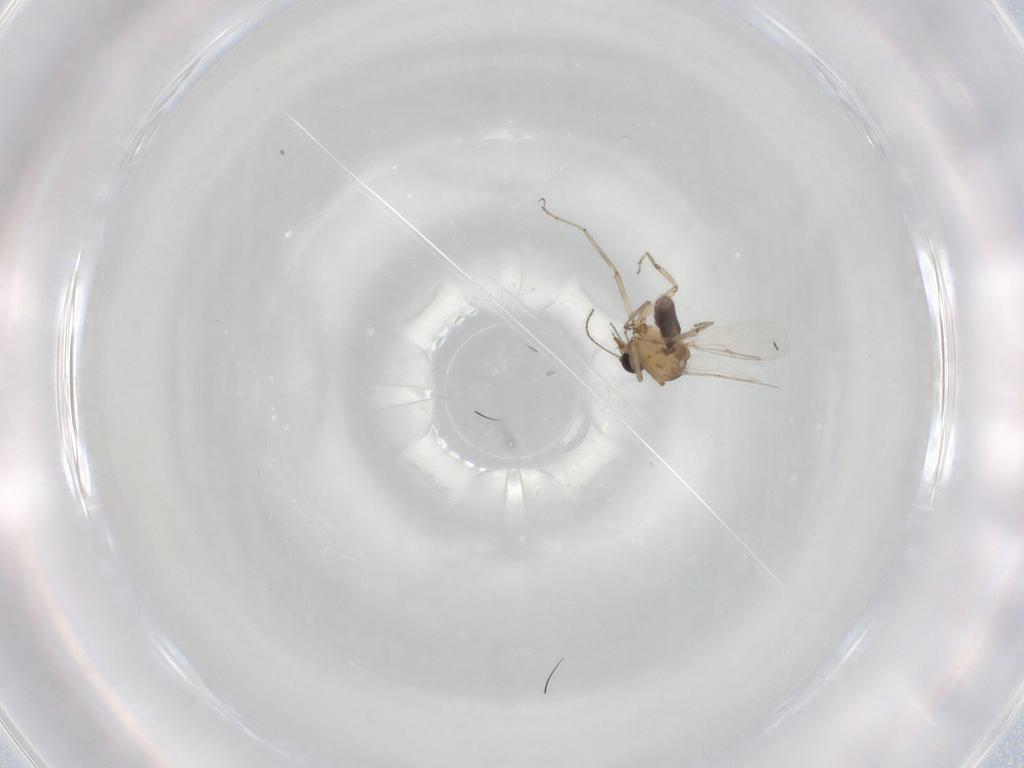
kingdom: Animalia
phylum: Arthropoda
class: Insecta
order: Diptera
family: Ceratopogonidae
